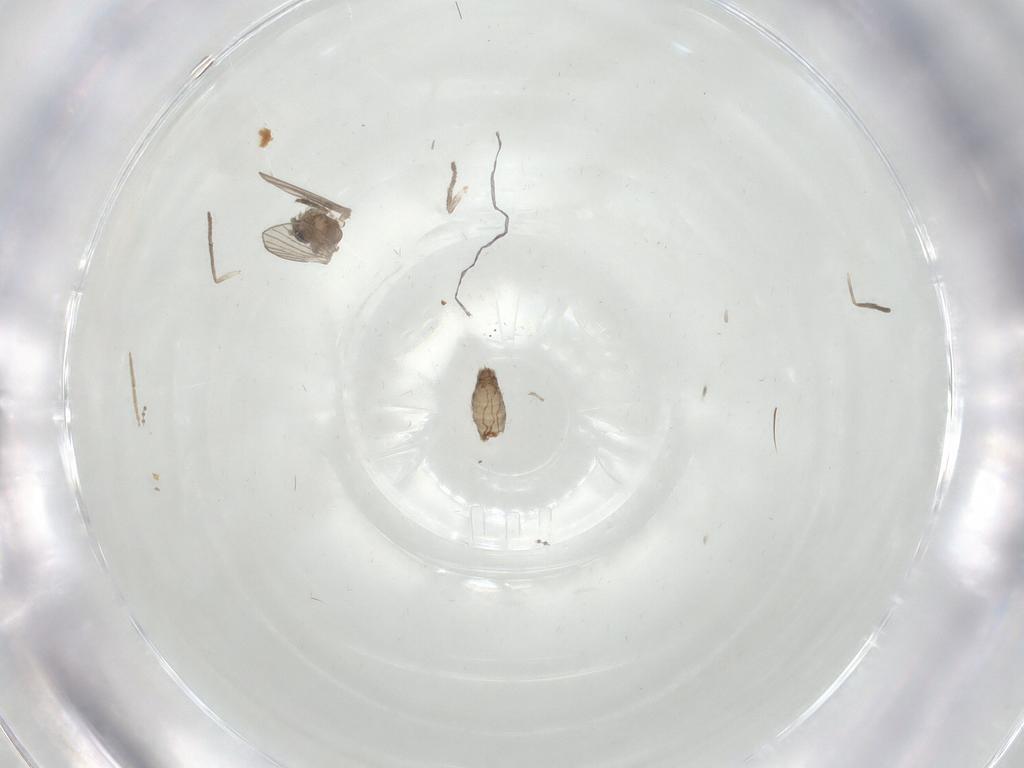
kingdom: Animalia
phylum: Arthropoda
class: Insecta
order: Diptera
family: Psychodidae
